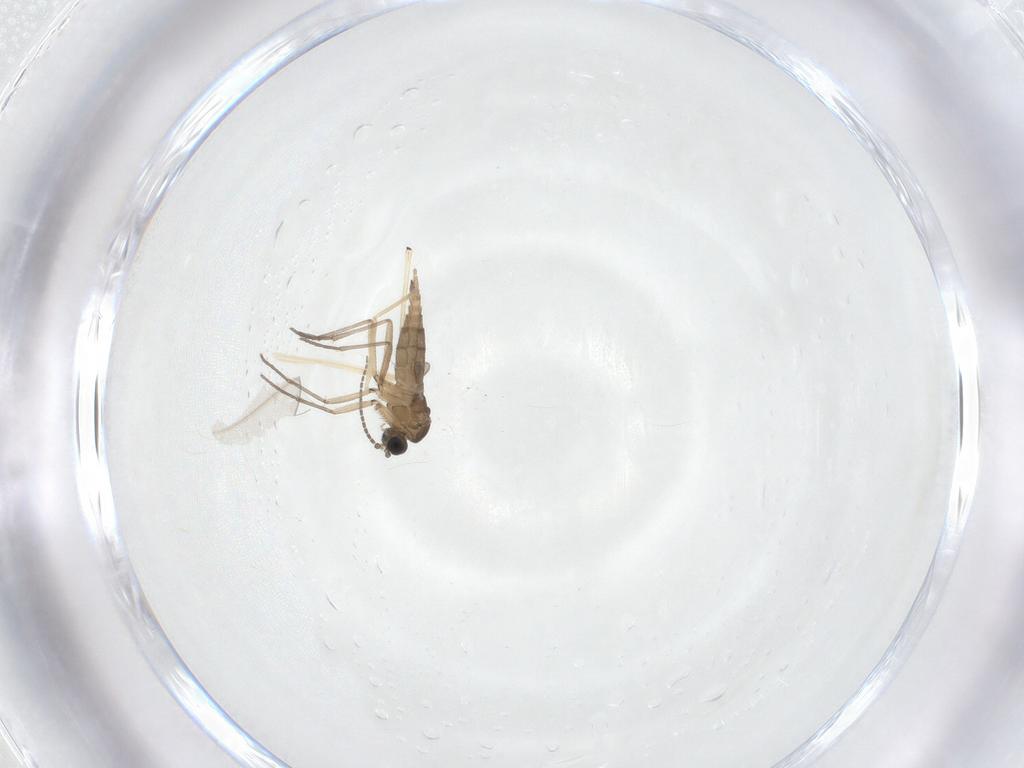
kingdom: Animalia
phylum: Arthropoda
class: Insecta
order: Diptera
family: Sciaridae
